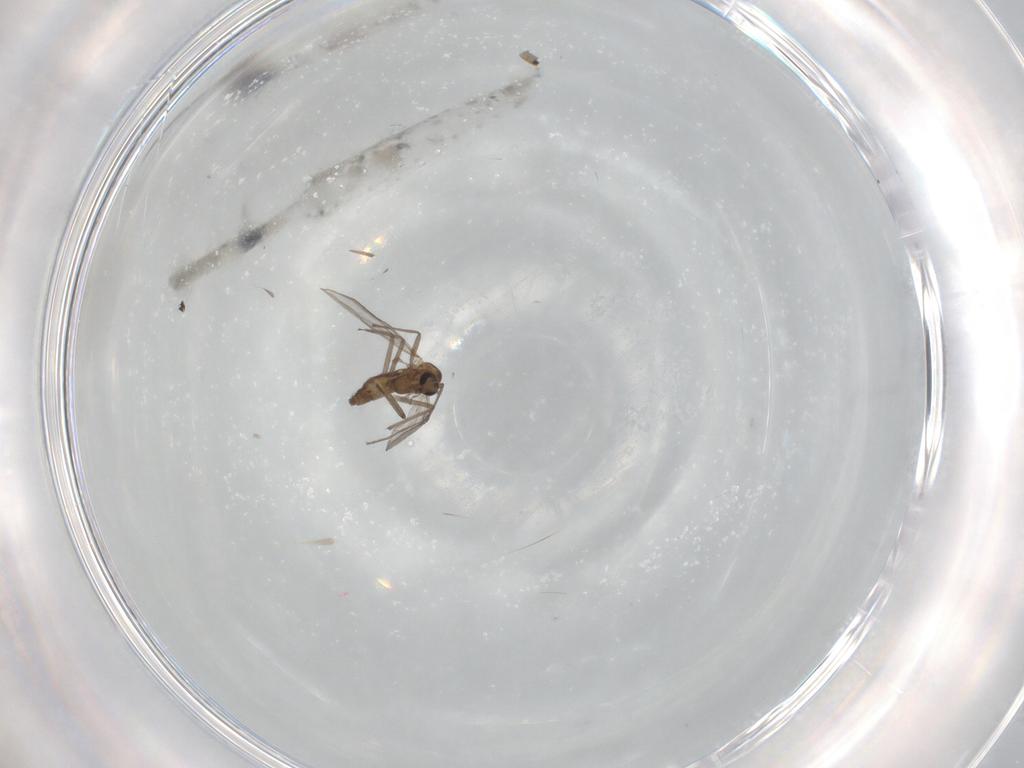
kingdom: Animalia
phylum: Arthropoda
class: Insecta
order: Diptera
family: Chironomidae
